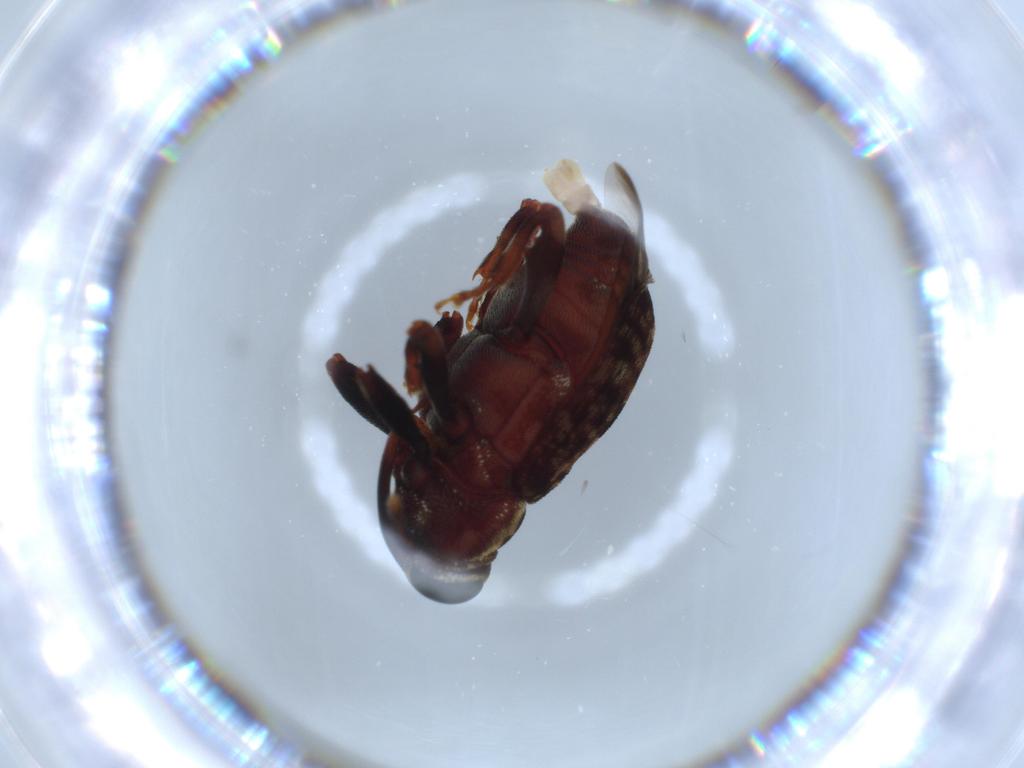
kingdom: Animalia
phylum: Arthropoda
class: Insecta
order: Coleoptera
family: Curculionidae
